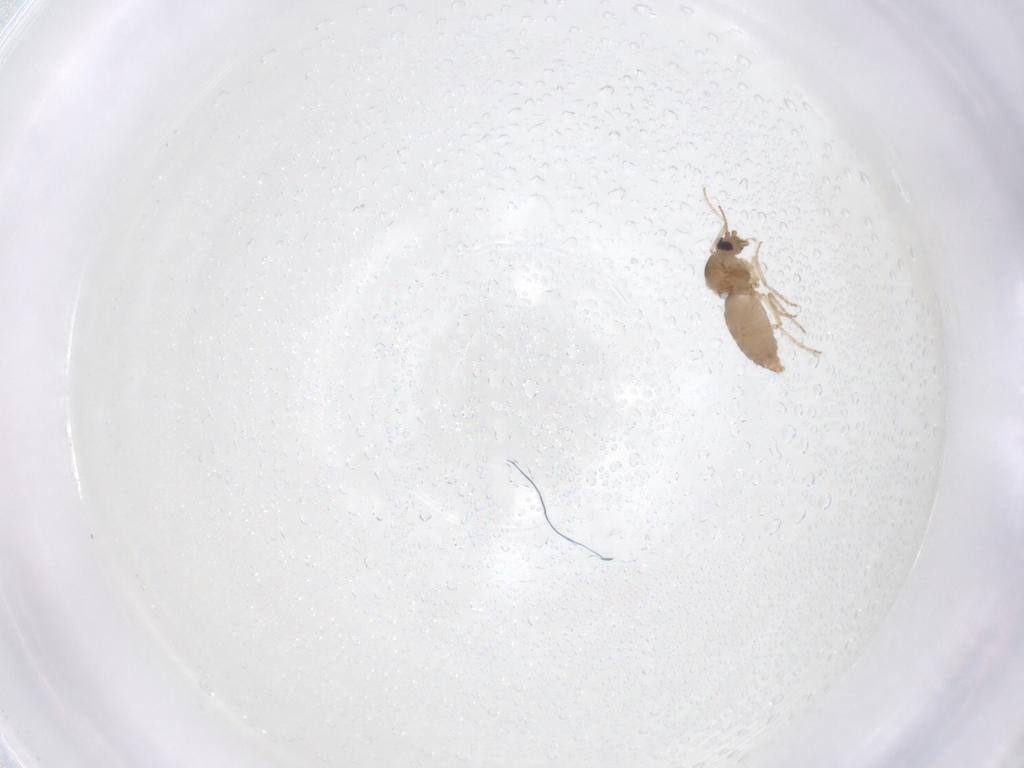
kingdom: Animalia
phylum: Arthropoda
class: Insecta
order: Diptera
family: Ceratopogonidae
